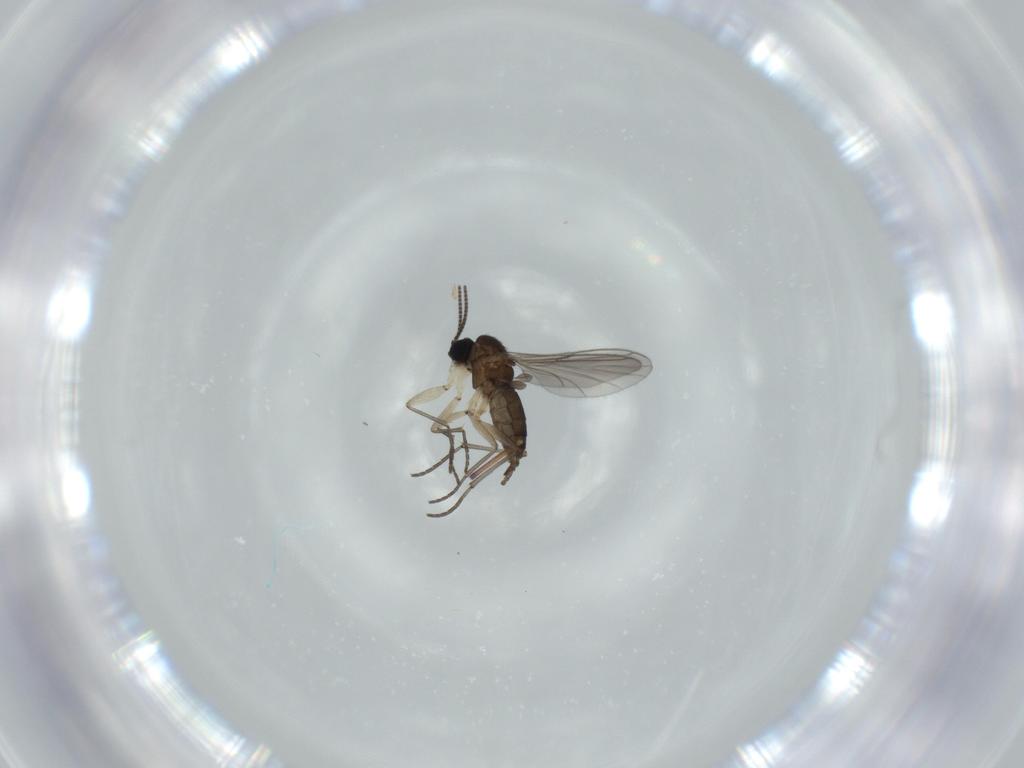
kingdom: Animalia
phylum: Arthropoda
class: Insecta
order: Diptera
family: Sciaridae
